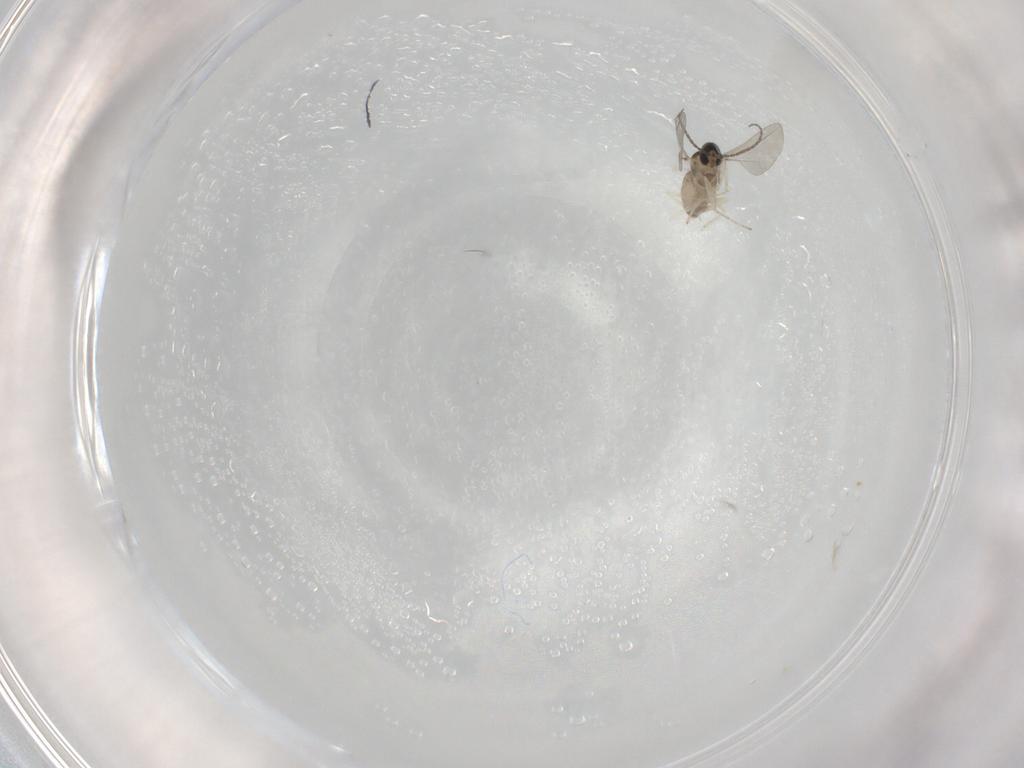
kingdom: Animalia
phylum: Arthropoda
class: Insecta
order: Diptera
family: Cecidomyiidae
